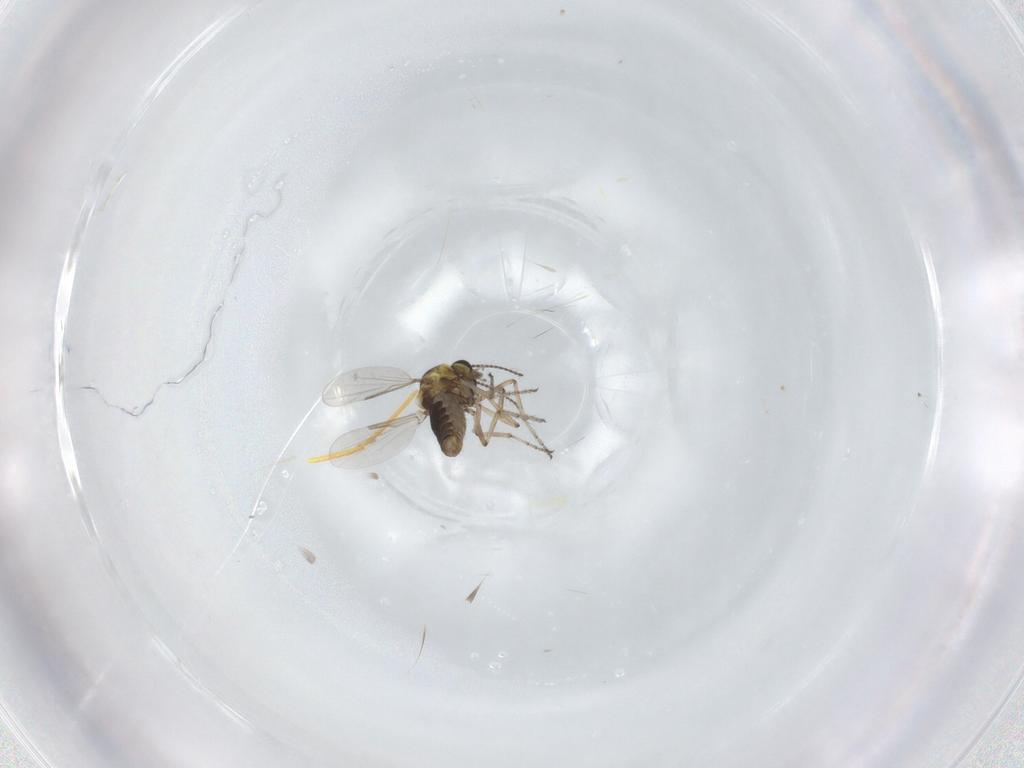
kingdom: Animalia
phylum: Arthropoda
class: Insecta
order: Diptera
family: Ceratopogonidae
